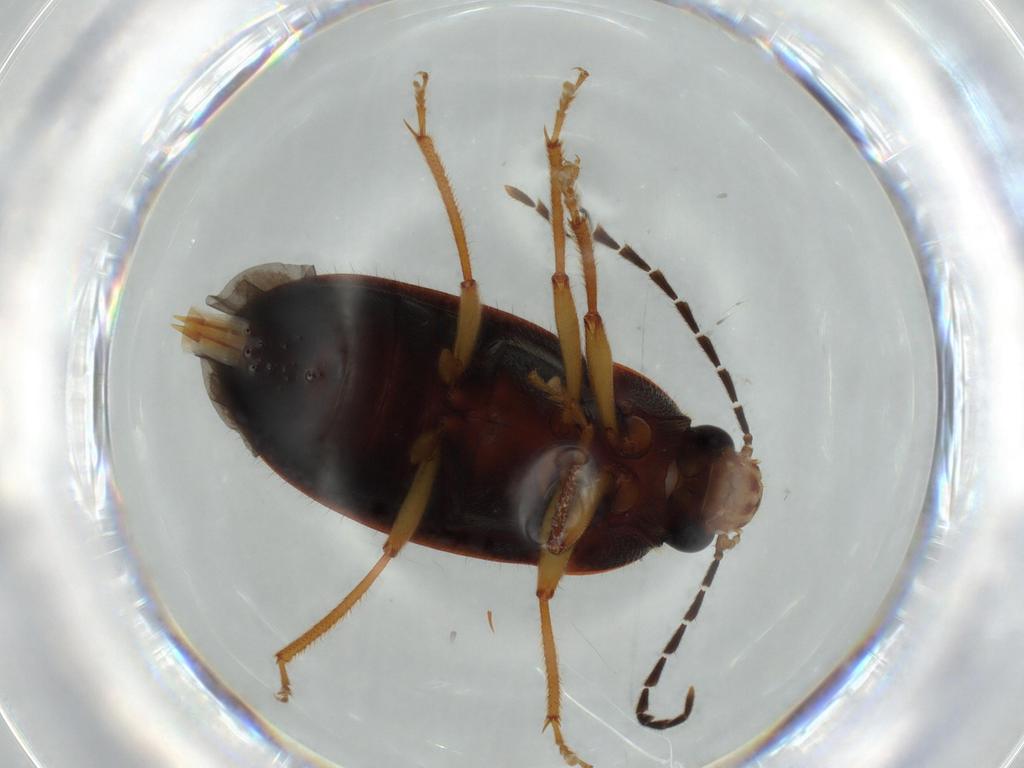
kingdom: Animalia
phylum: Arthropoda
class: Insecta
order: Coleoptera
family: Ptilodactylidae
